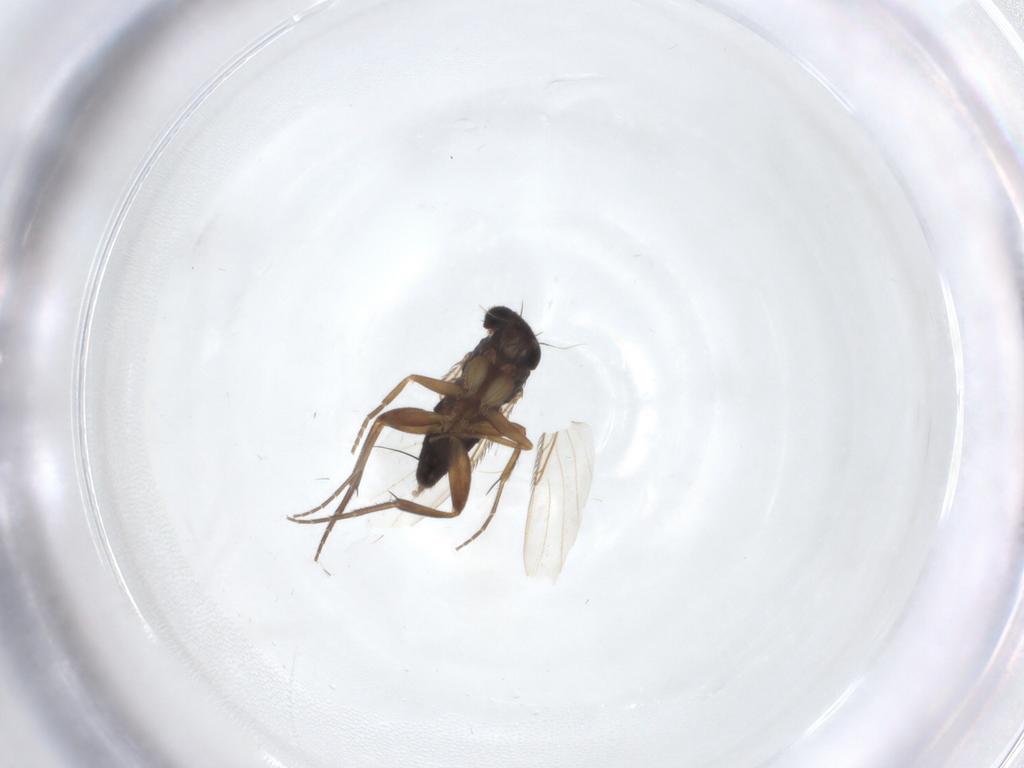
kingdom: Animalia
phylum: Arthropoda
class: Insecta
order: Diptera
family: Phoridae
